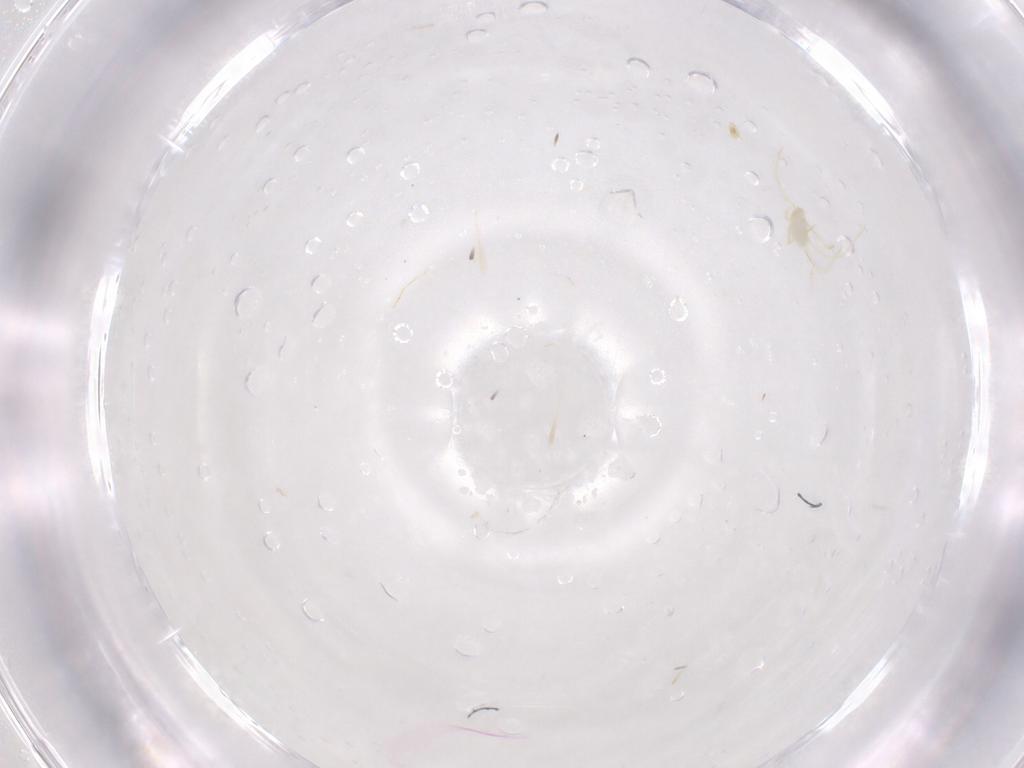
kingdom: Animalia
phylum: Arthropoda
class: Arachnida
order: Trombidiformes
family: Erythraeidae
